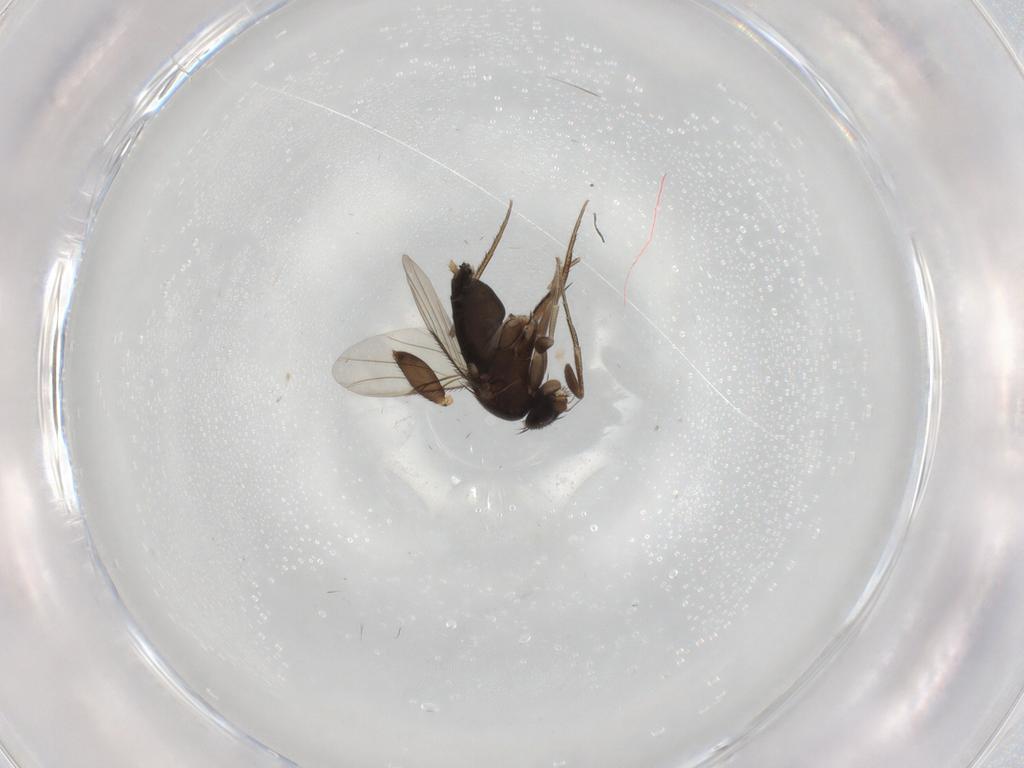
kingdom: Animalia
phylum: Arthropoda
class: Insecta
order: Diptera
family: Phoridae
